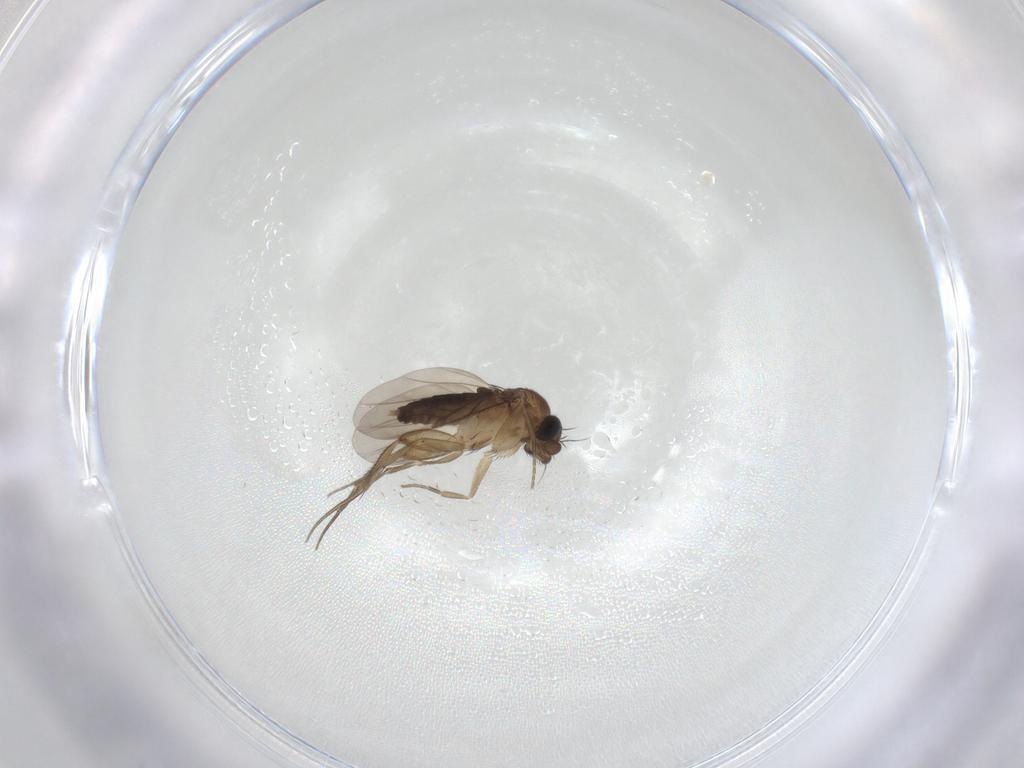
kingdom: Animalia
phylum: Arthropoda
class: Insecta
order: Diptera
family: Phoridae
